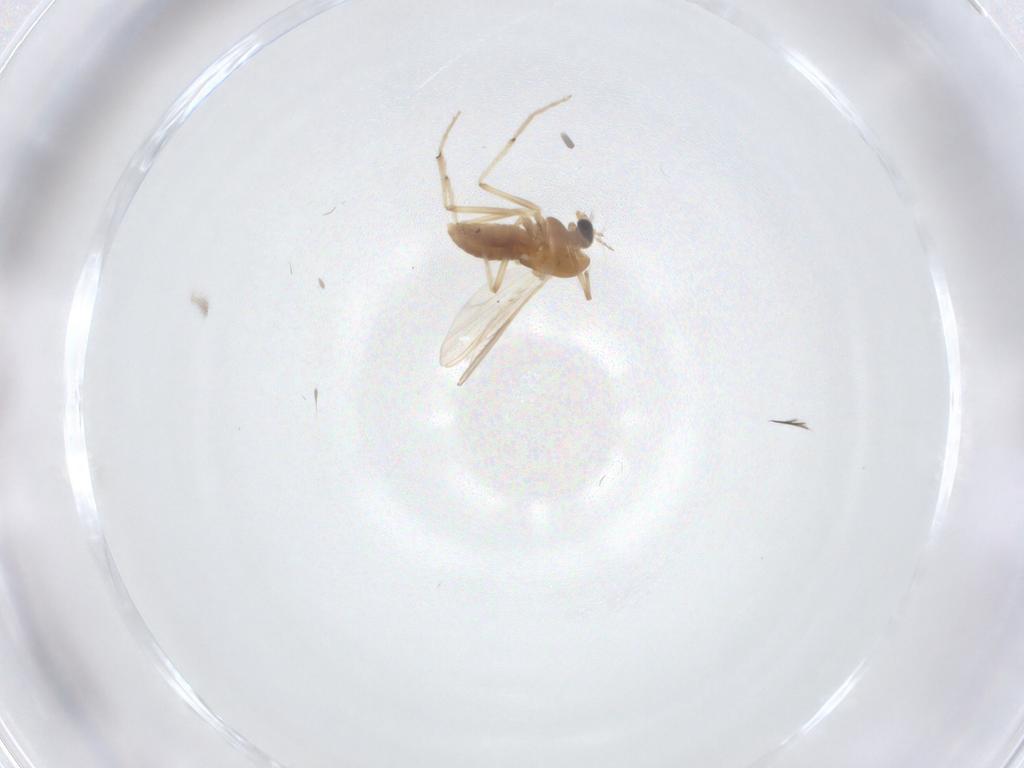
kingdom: Animalia
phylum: Arthropoda
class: Insecta
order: Diptera
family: Chironomidae
